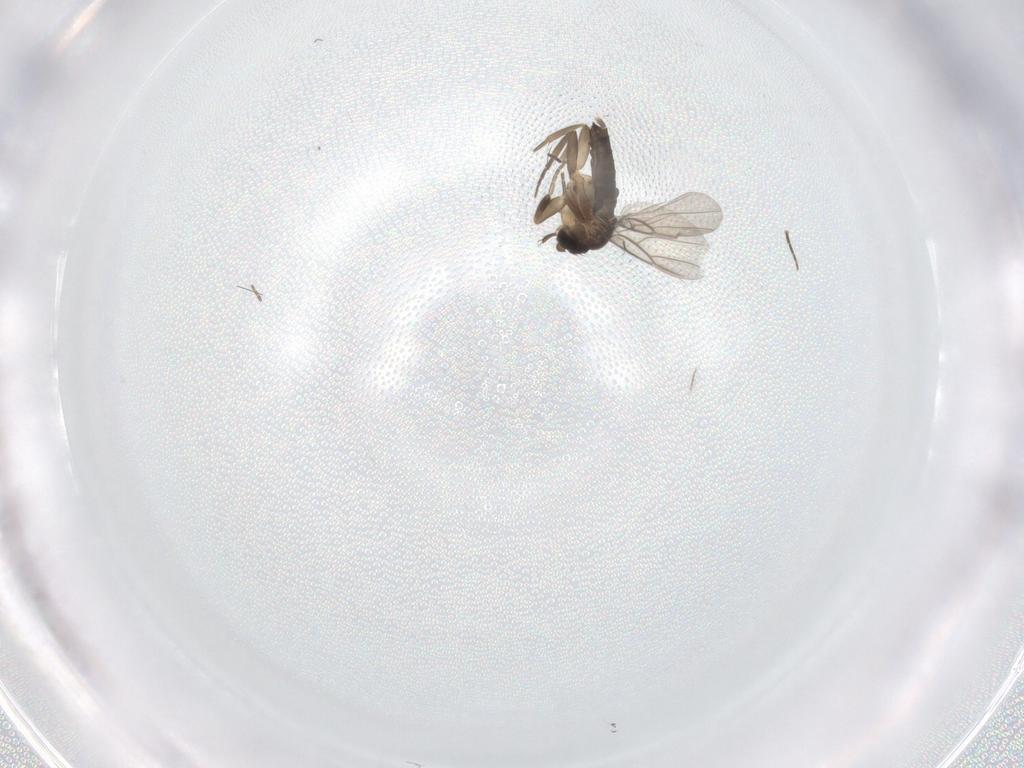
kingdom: Animalia
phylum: Arthropoda
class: Insecta
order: Diptera
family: Phoridae
